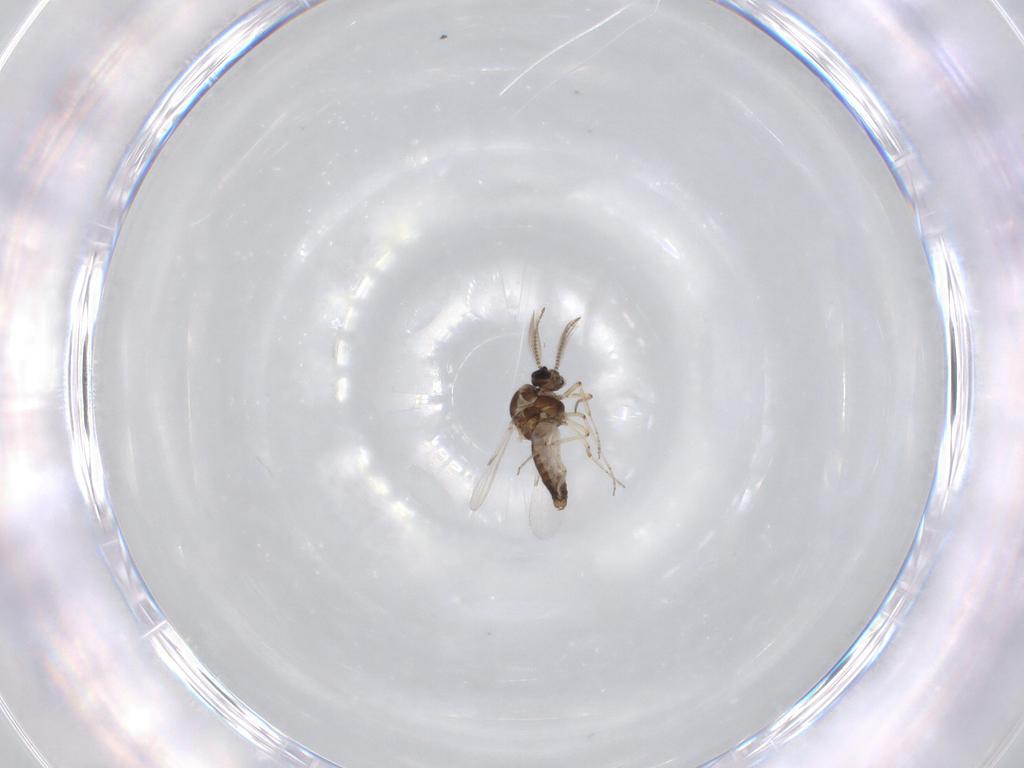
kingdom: Animalia
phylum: Arthropoda
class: Insecta
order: Diptera
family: Ceratopogonidae
